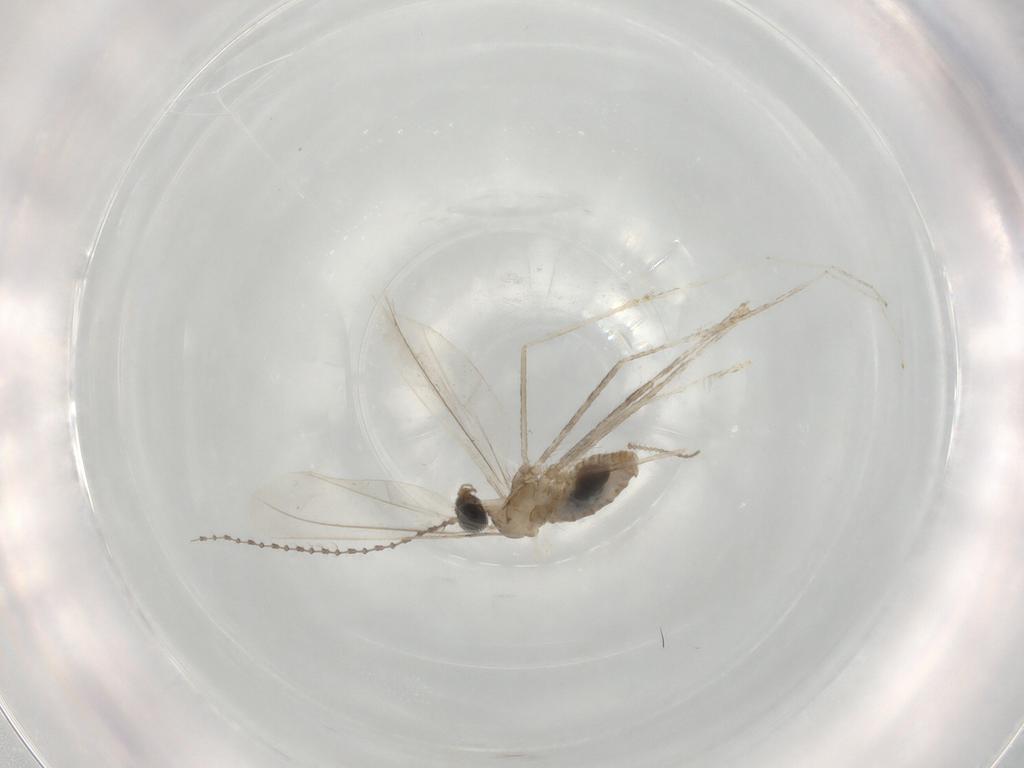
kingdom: Animalia
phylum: Arthropoda
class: Insecta
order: Diptera
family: Cecidomyiidae
